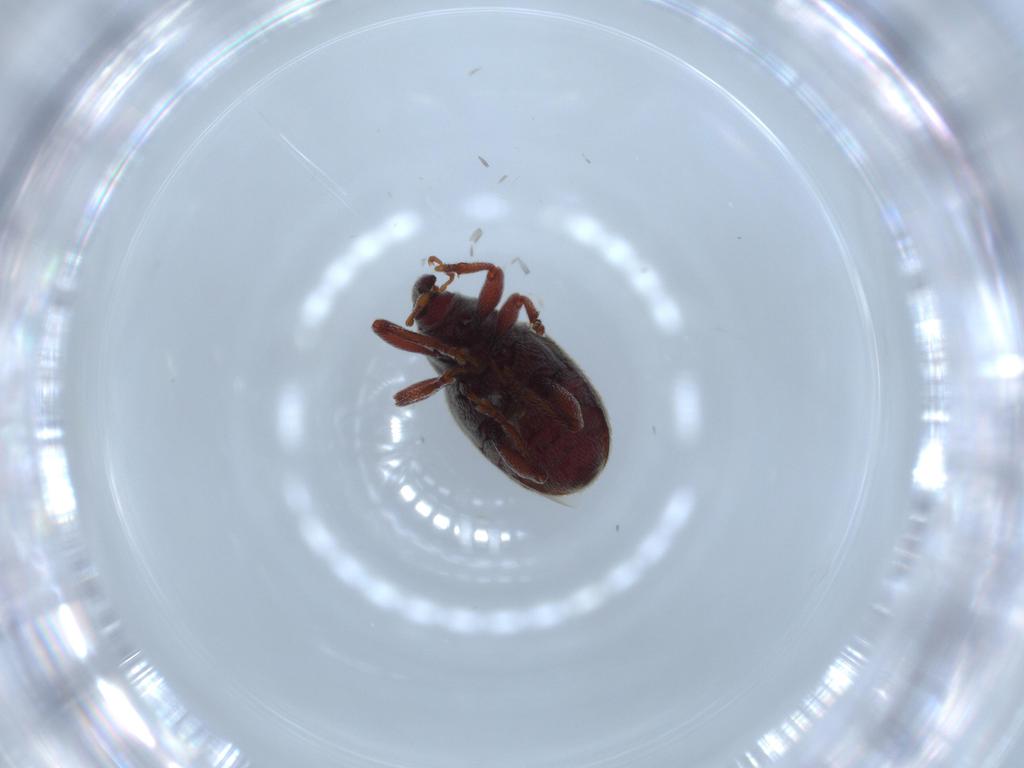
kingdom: Animalia
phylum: Arthropoda
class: Insecta
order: Coleoptera
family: Curculionidae
